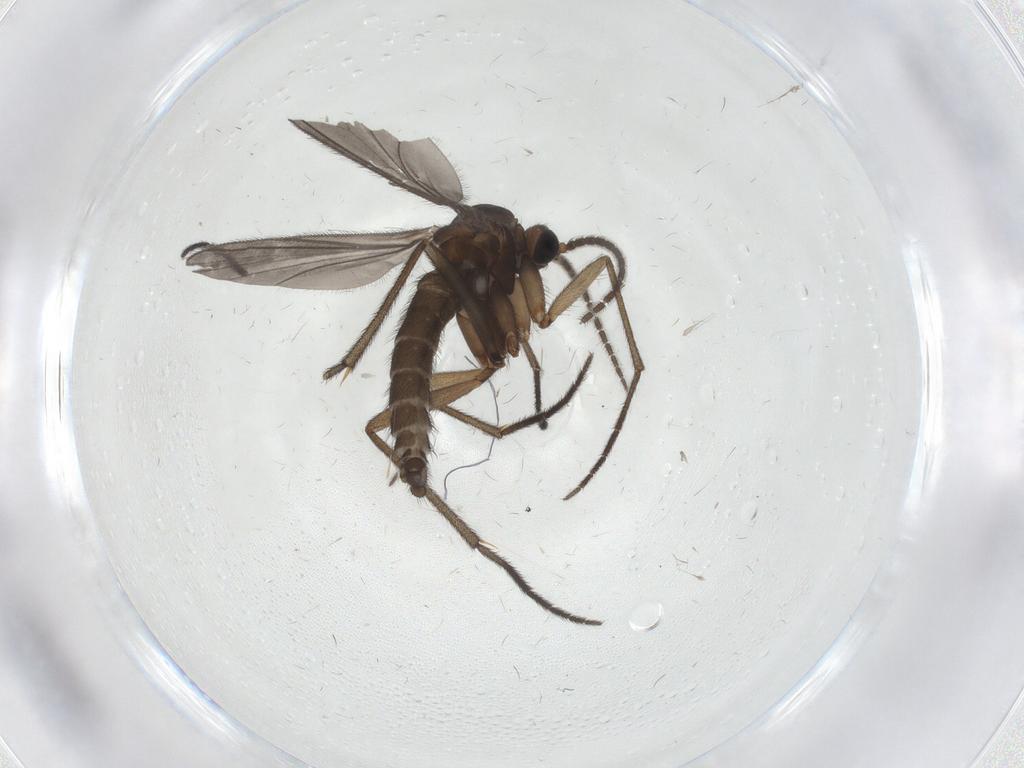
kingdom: Animalia
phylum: Arthropoda
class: Insecta
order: Diptera
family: Sciaridae
